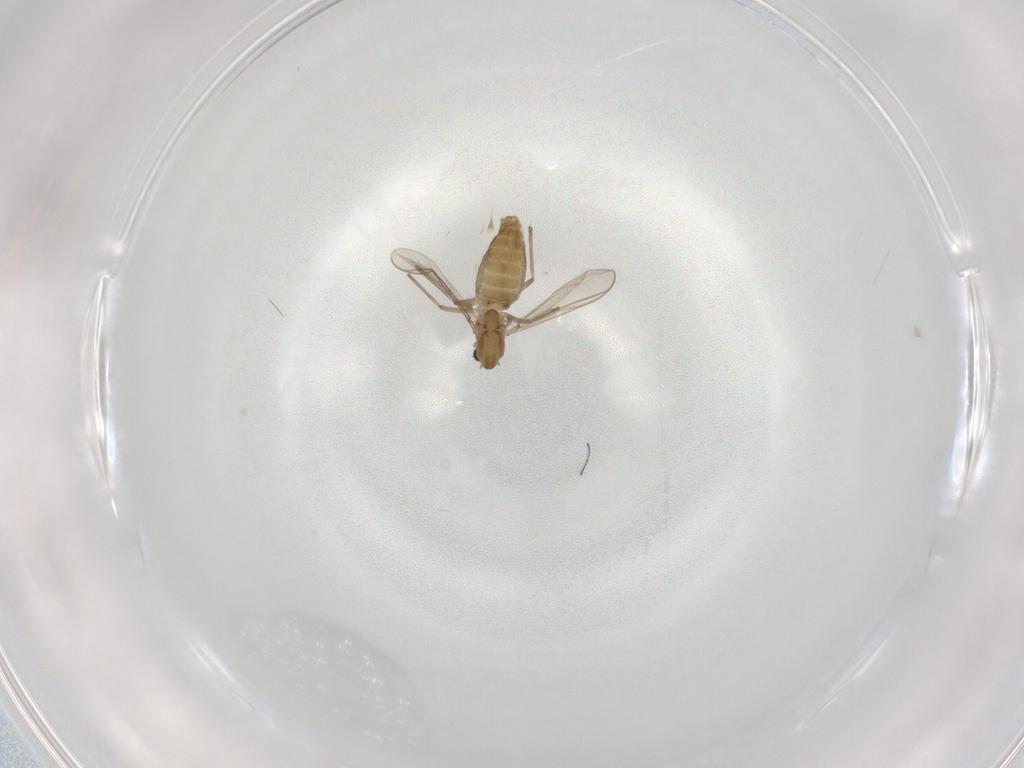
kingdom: Animalia
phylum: Arthropoda
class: Insecta
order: Diptera
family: Chironomidae
